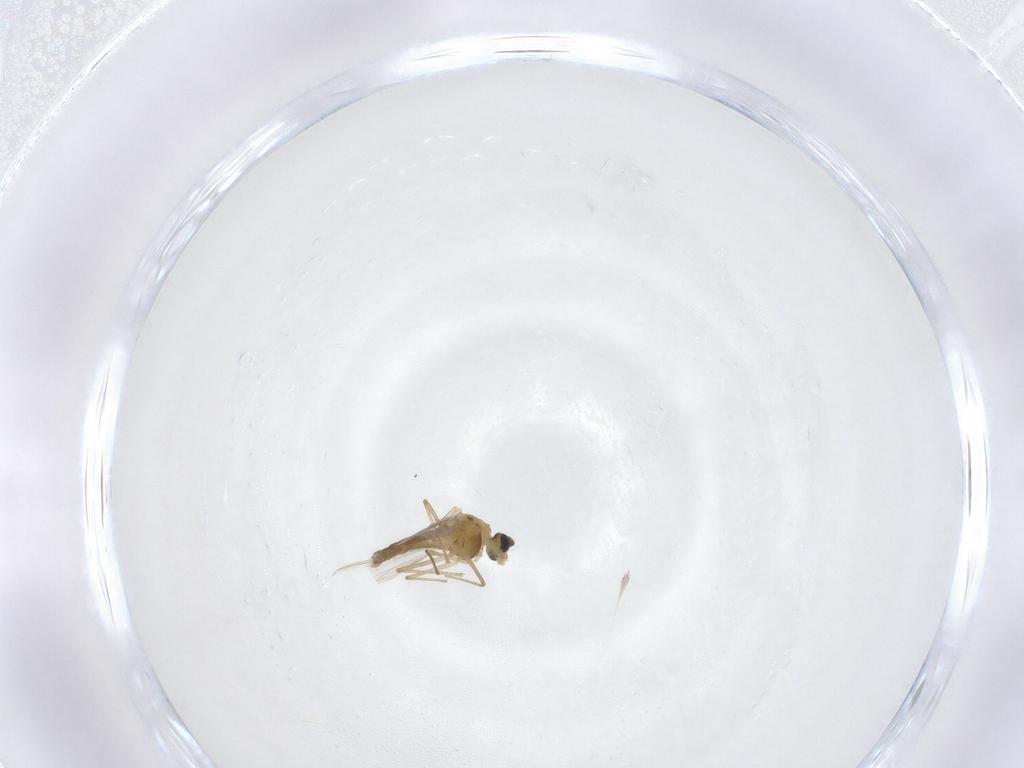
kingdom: Animalia
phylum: Arthropoda
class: Insecta
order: Diptera
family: Chironomidae
